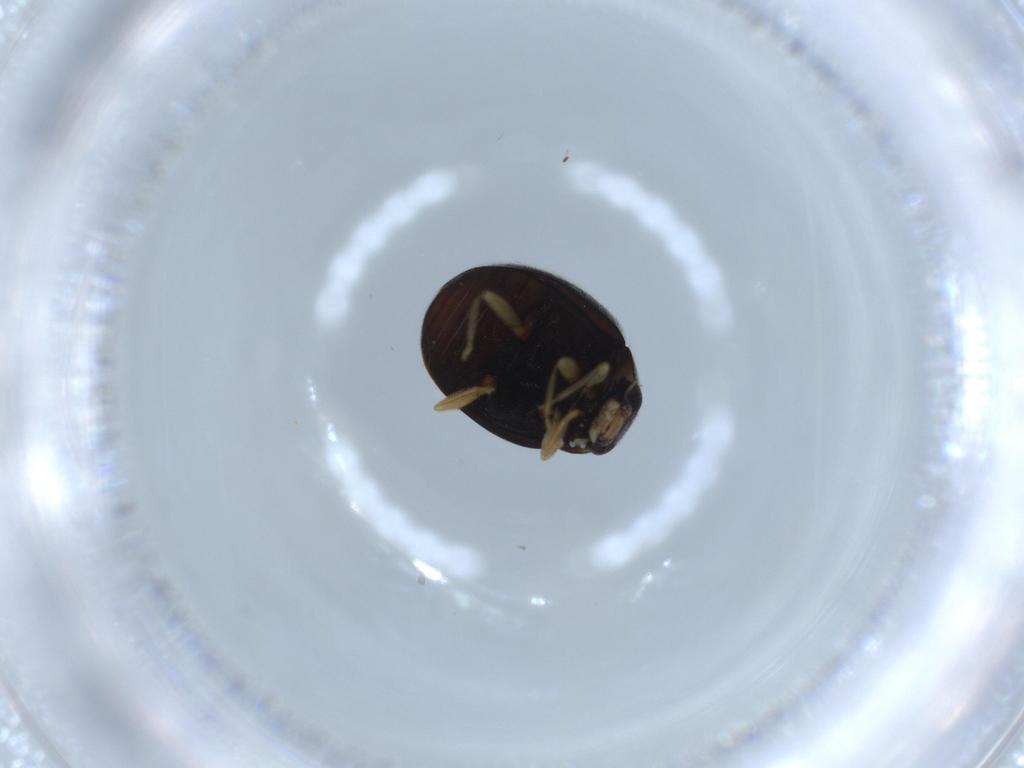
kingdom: Animalia
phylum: Arthropoda
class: Insecta
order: Coleoptera
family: Coccinellidae
